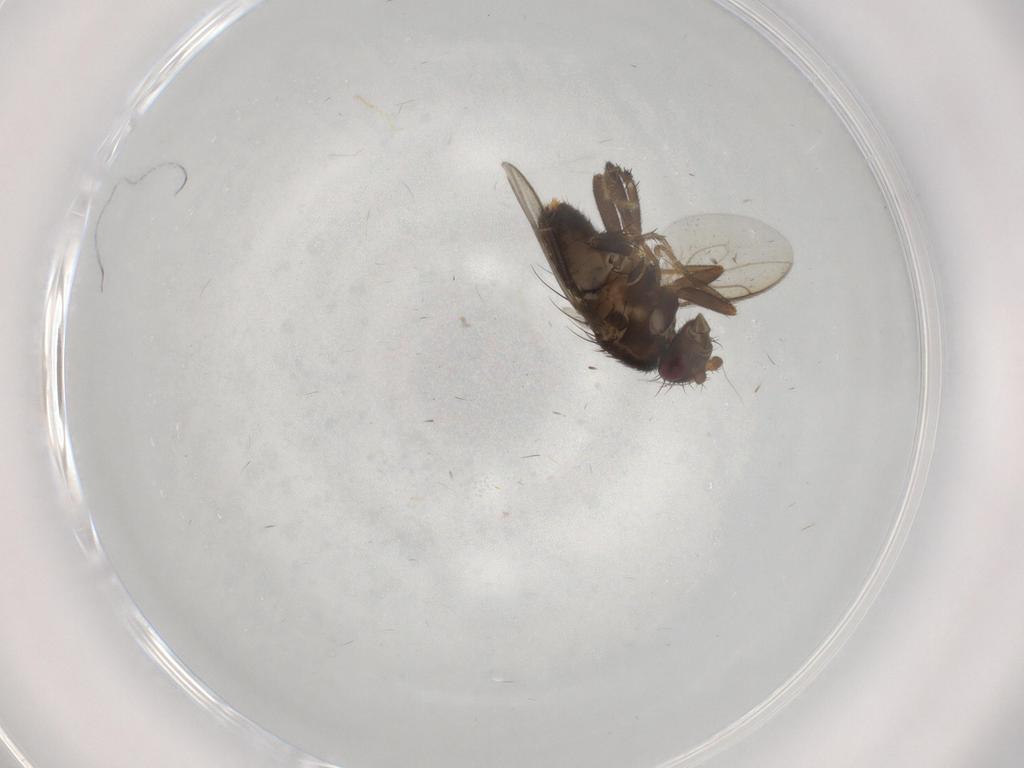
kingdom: Animalia
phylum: Arthropoda
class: Insecta
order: Diptera
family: Sphaeroceridae
